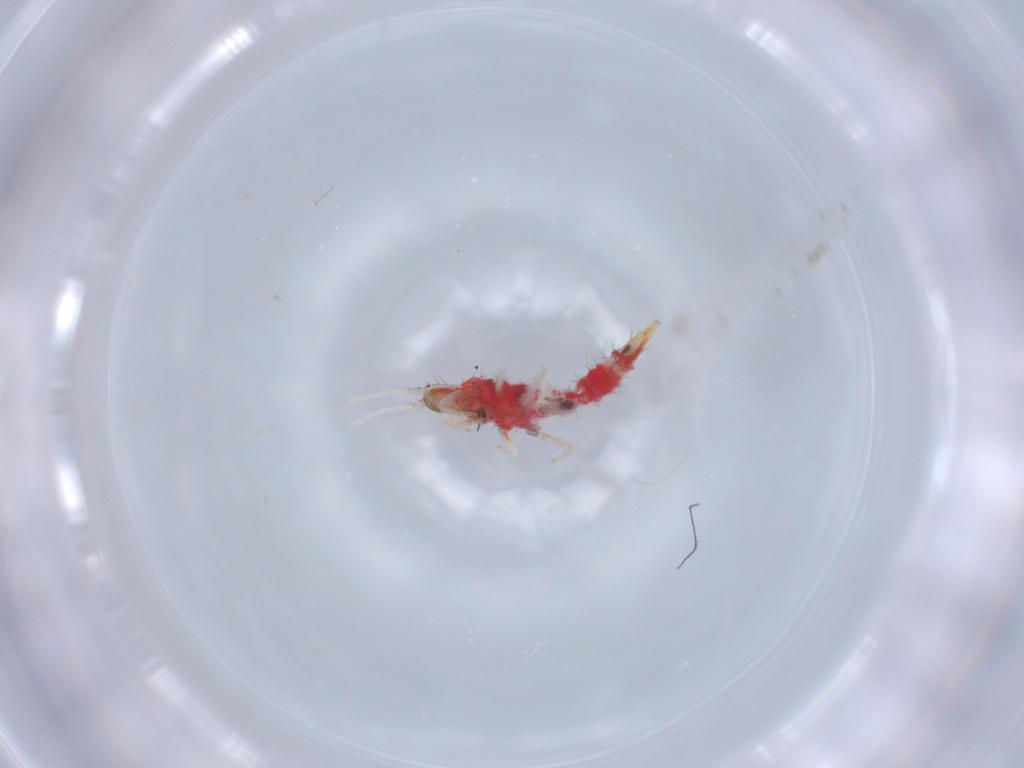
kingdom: Animalia
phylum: Arthropoda
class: Insecta
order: Thysanoptera
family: Phlaeothripidae
